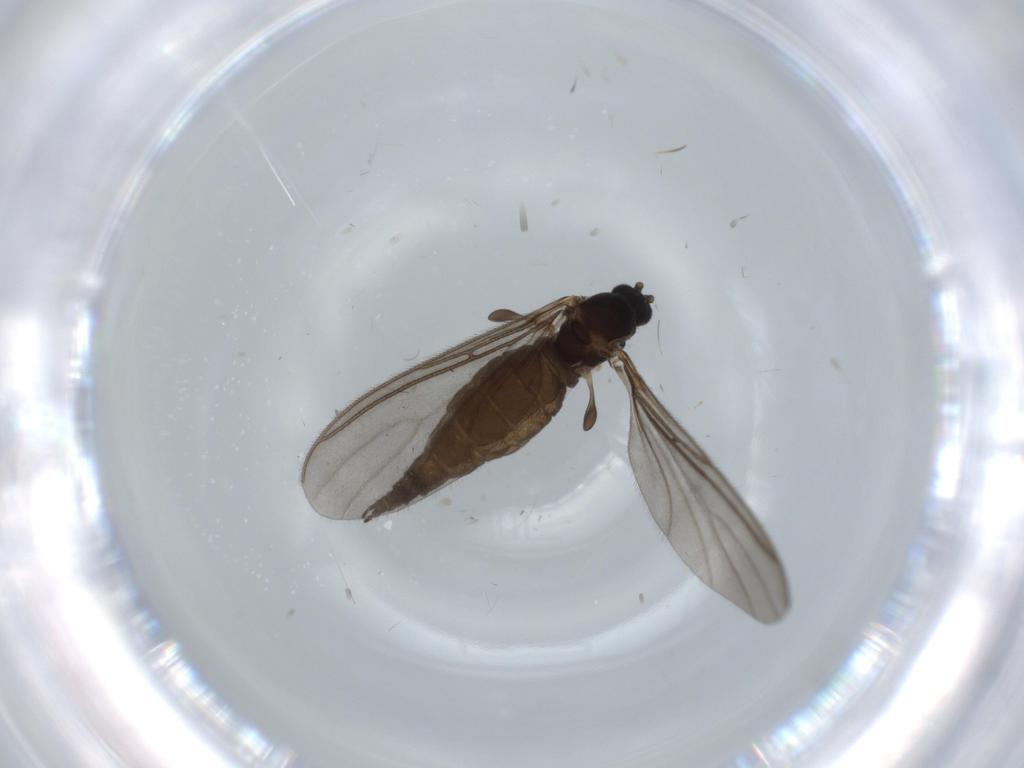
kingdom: Animalia
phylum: Arthropoda
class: Insecta
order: Diptera
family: Sciaridae
